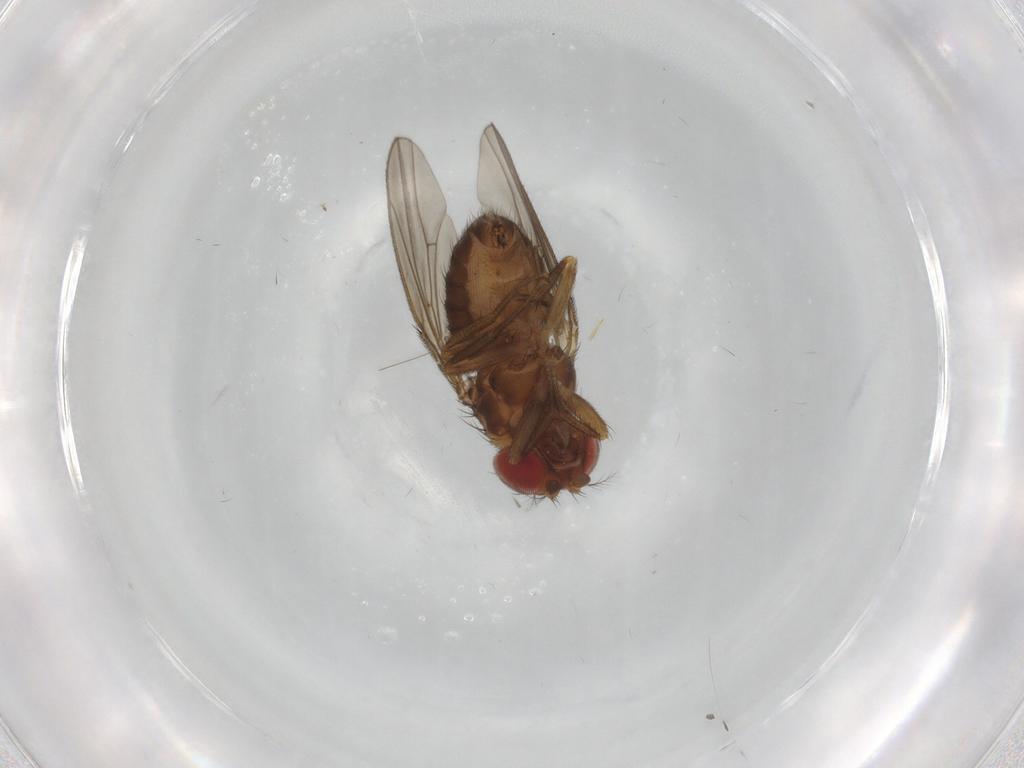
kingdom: Animalia
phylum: Arthropoda
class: Insecta
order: Diptera
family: Drosophilidae
